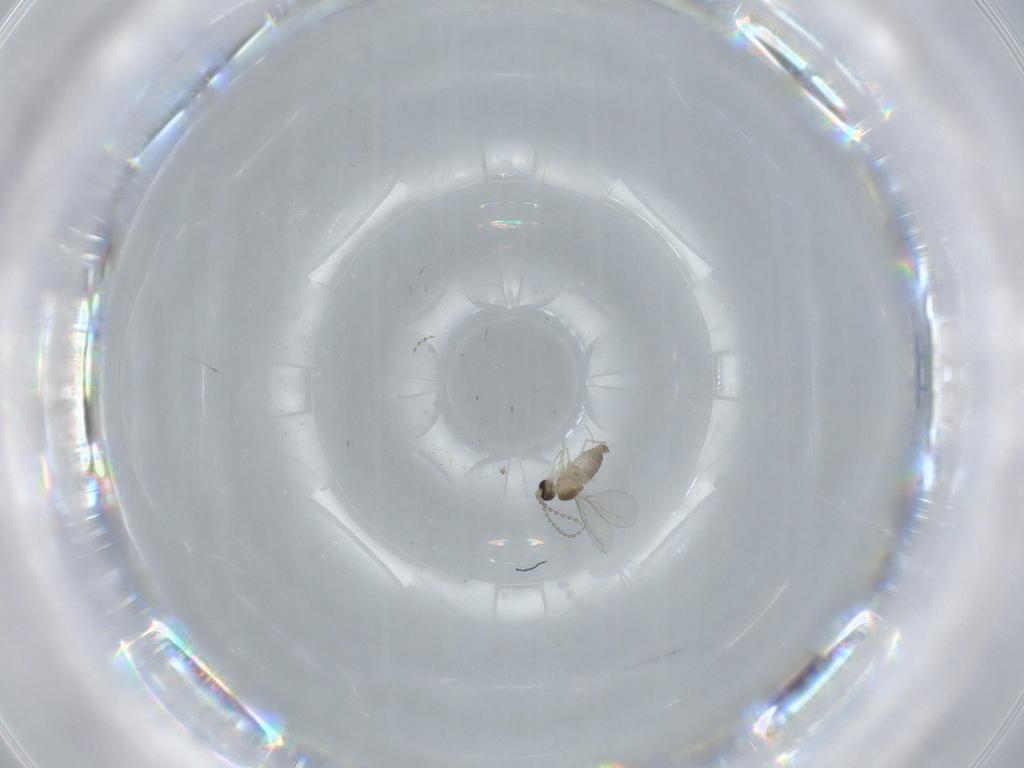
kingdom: Animalia
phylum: Arthropoda
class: Insecta
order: Diptera
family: Cecidomyiidae
